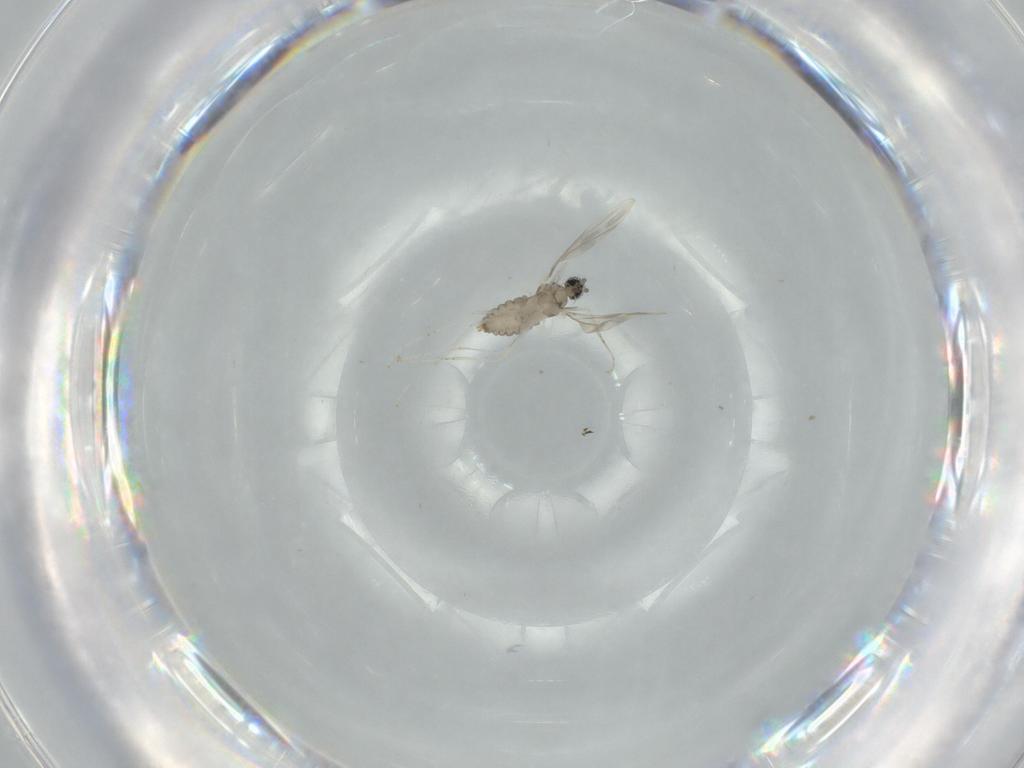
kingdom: Animalia
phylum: Arthropoda
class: Insecta
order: Diptera
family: Cecidomyiidae
